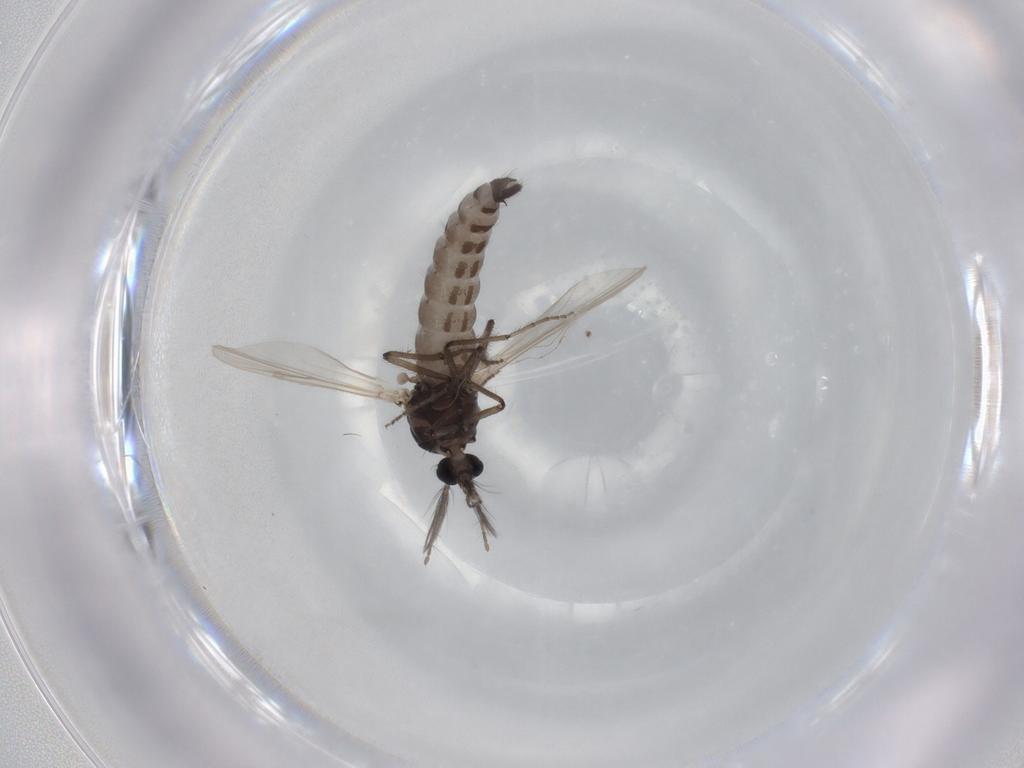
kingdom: Animalia
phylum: Arthropoda
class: Insecta
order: Diptera
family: Ceratopogonidae
